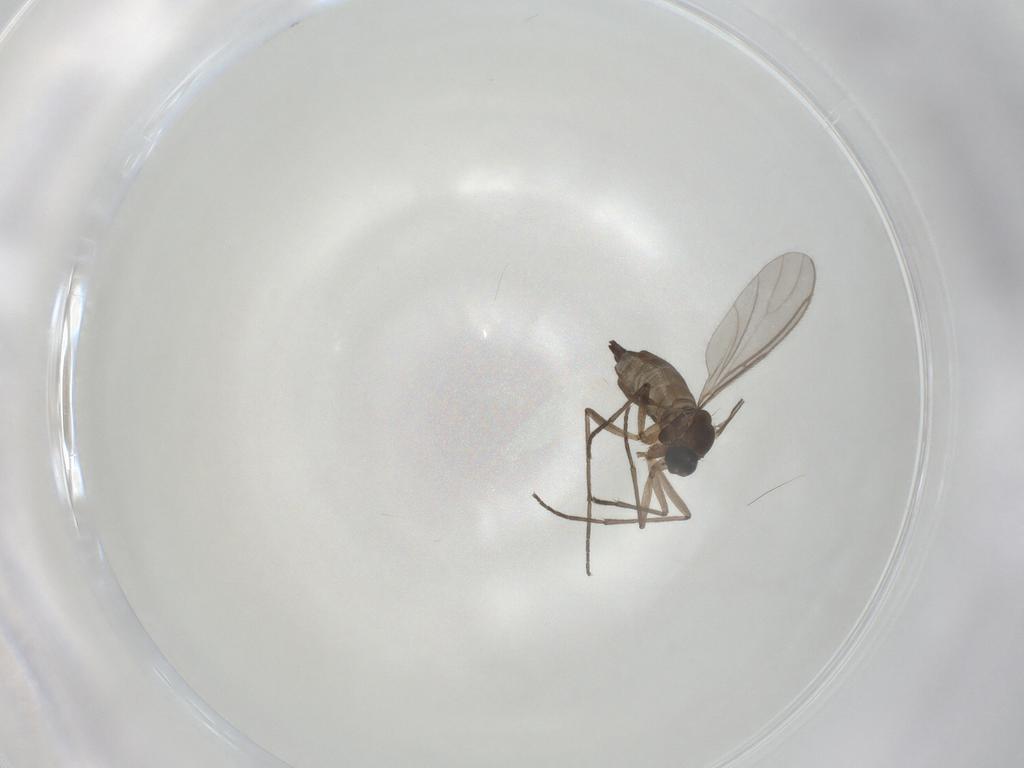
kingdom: Animalia
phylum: Arthropoda
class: Insecta
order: Diptera
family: Sciaridae
